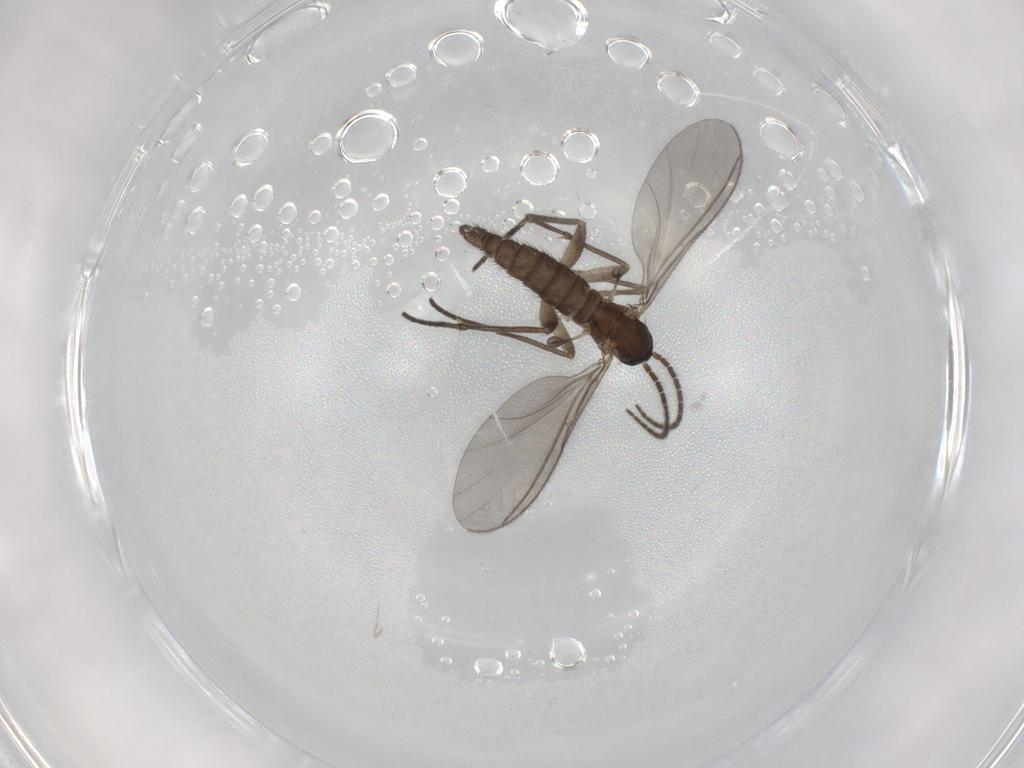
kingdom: Animalia
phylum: Arthropoda
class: Insecta
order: Diptera
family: Sciaridae
